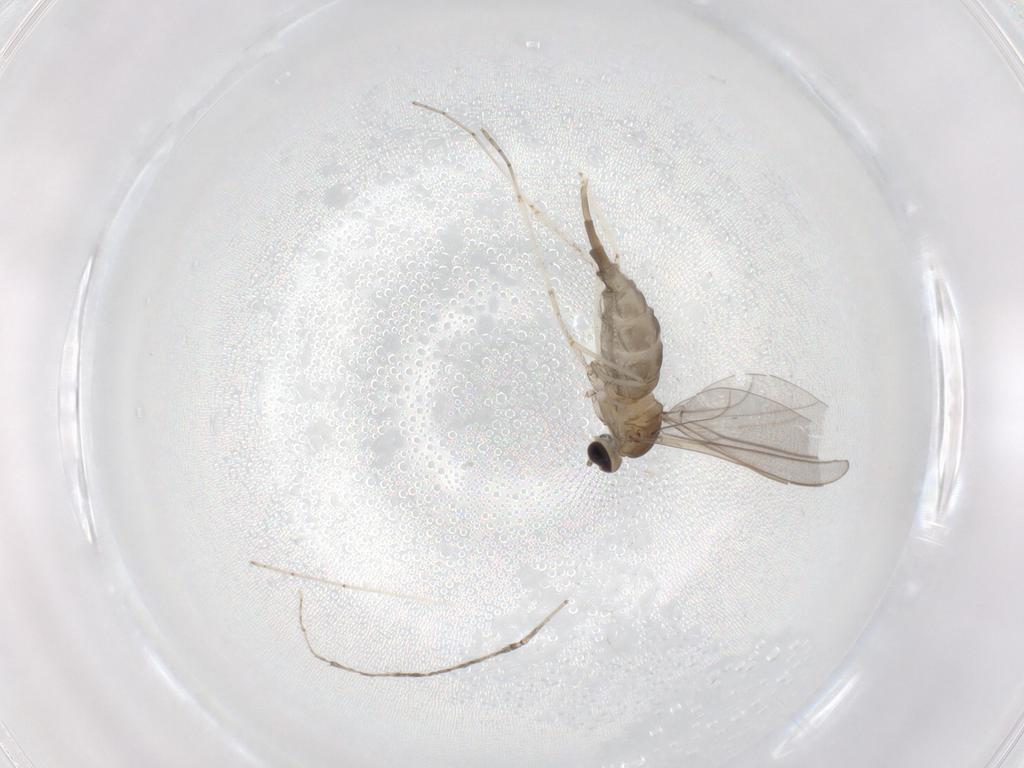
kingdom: Animalia
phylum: Arthropoda
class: Insecta
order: Diptera
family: Cecidomyiidae
